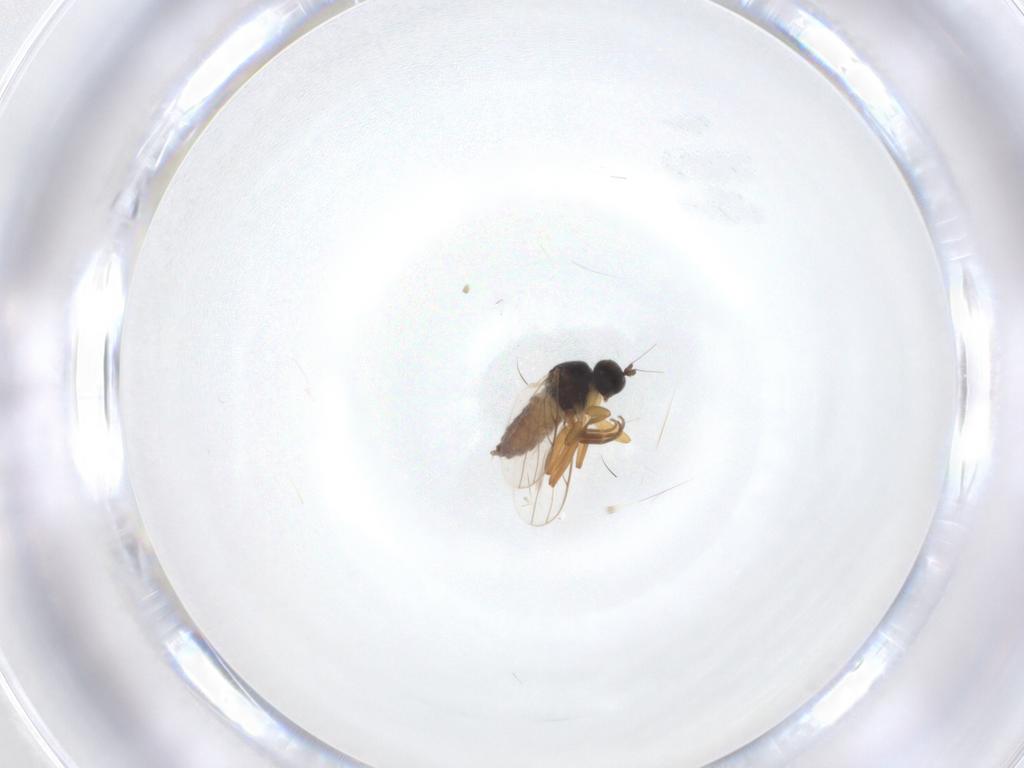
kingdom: Animalia
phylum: Arthropoda
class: Insecta
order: Diptera
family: Hybotidae
